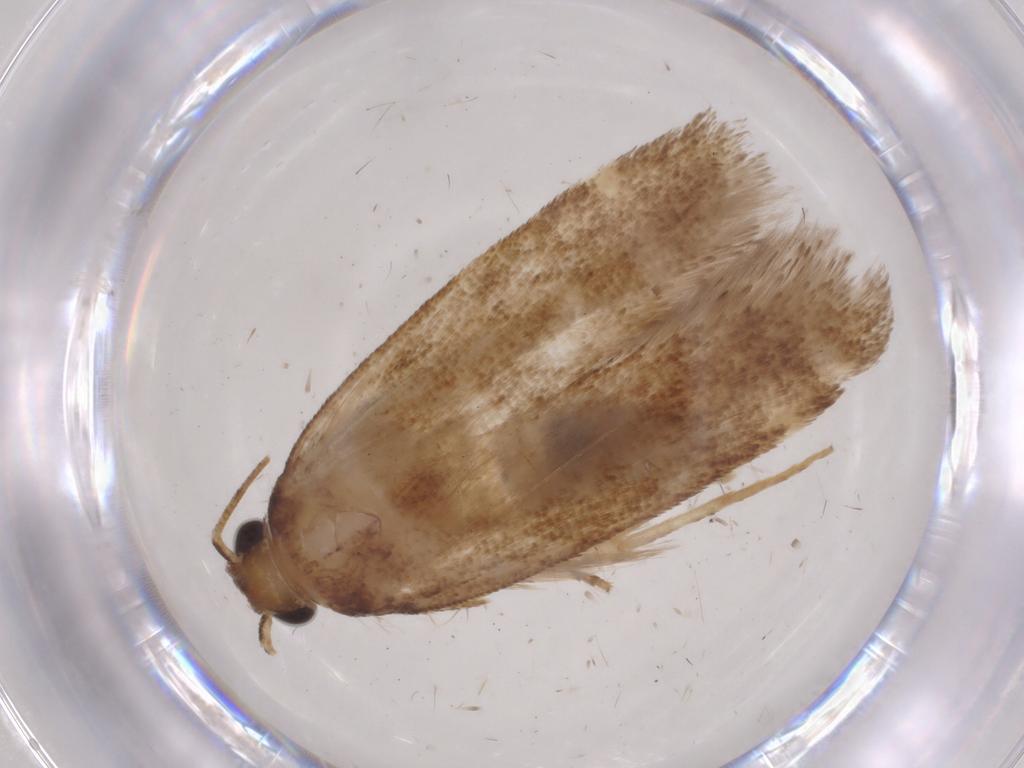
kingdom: Animalia
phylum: Arthropoda
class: Insecta
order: Lepidoptera
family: Gelechiidae
